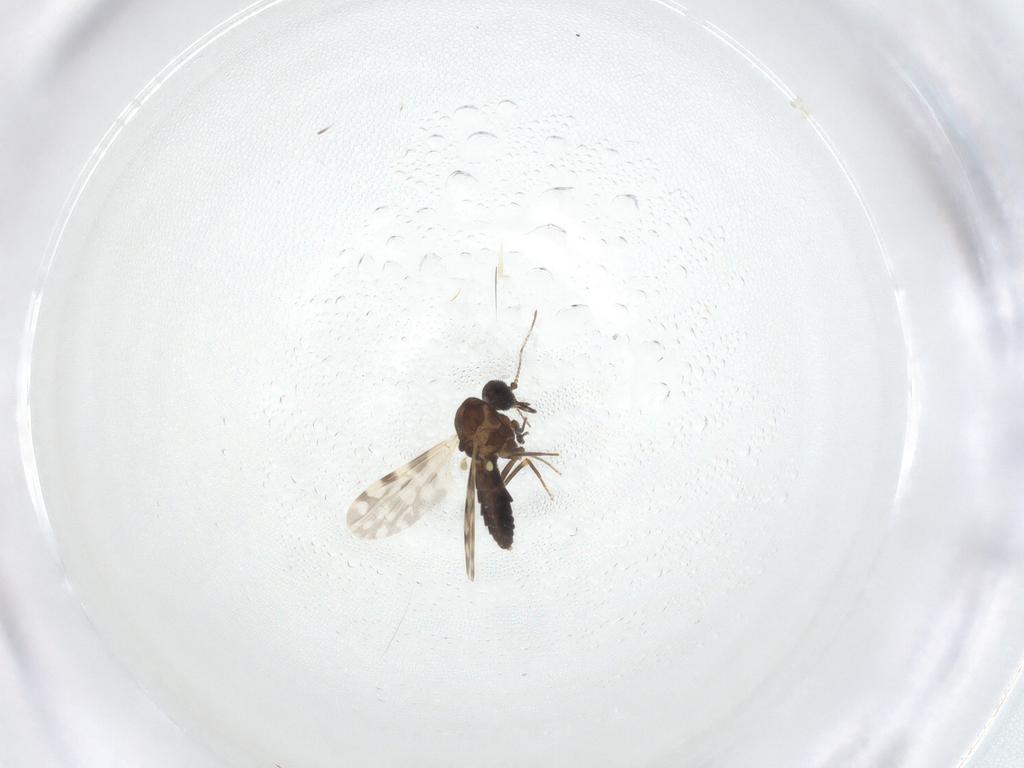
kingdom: Animalia
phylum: Arthropoda
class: Insecta
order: Diptera
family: Ceratopogonidae
